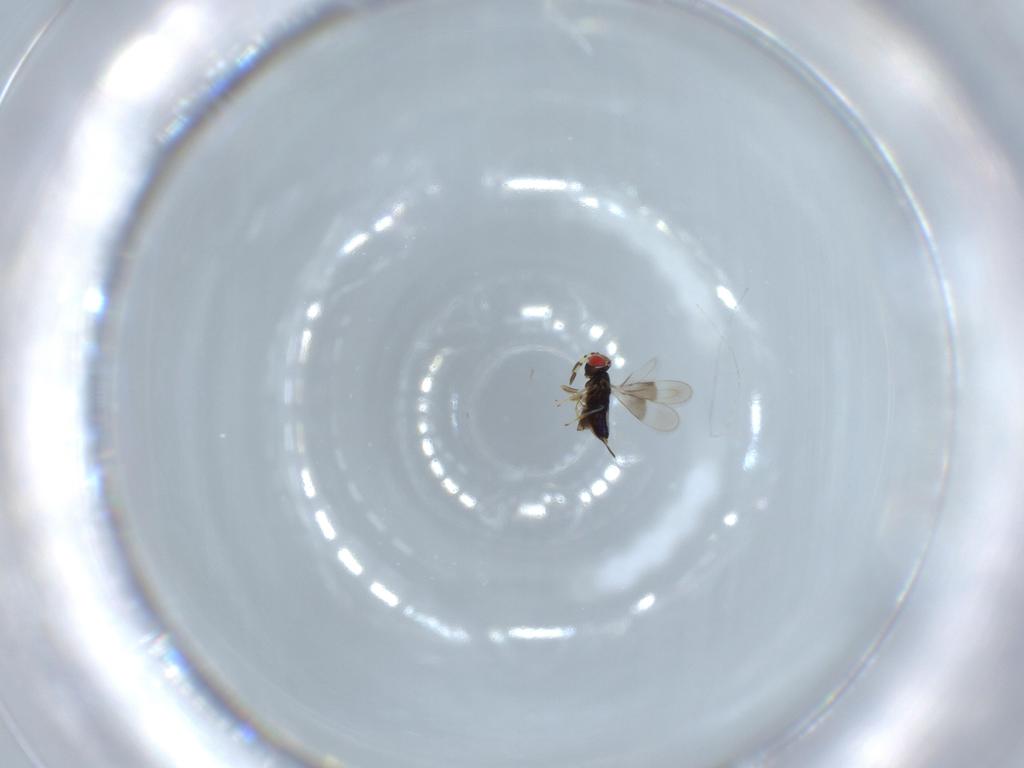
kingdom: Animalia
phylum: Arthropoda
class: Insecta
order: Hymenoptera
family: Azotidae
